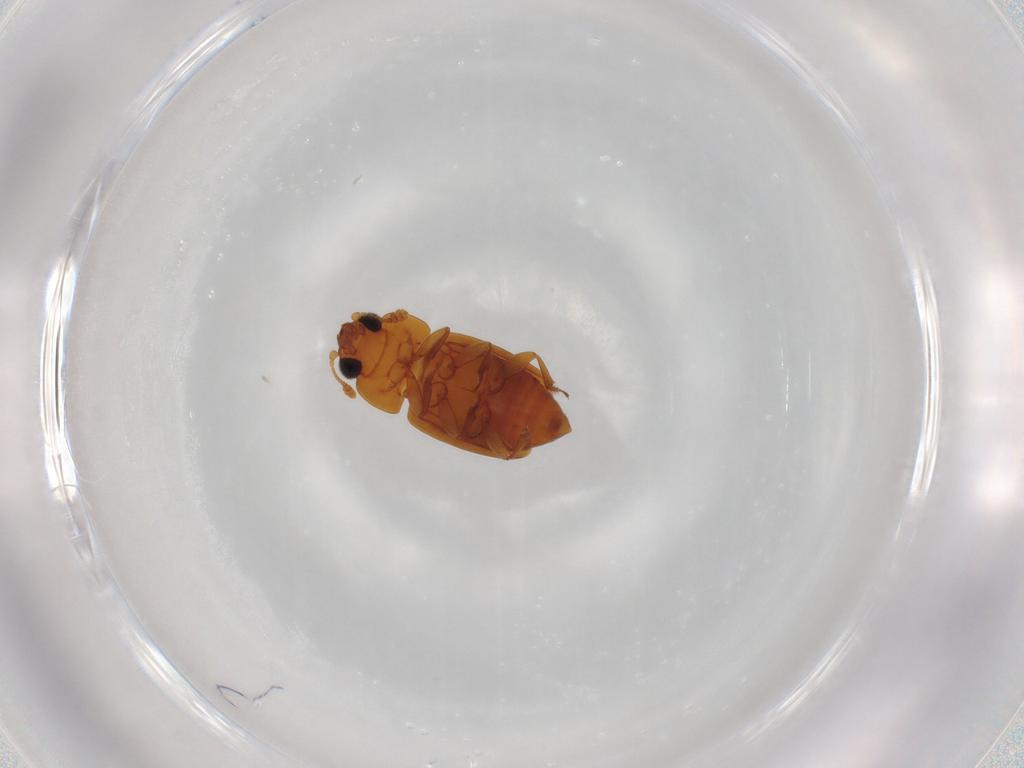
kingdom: Animalia
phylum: Arthropoda
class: Insecta
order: Coleoptera
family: Nitidulidae
